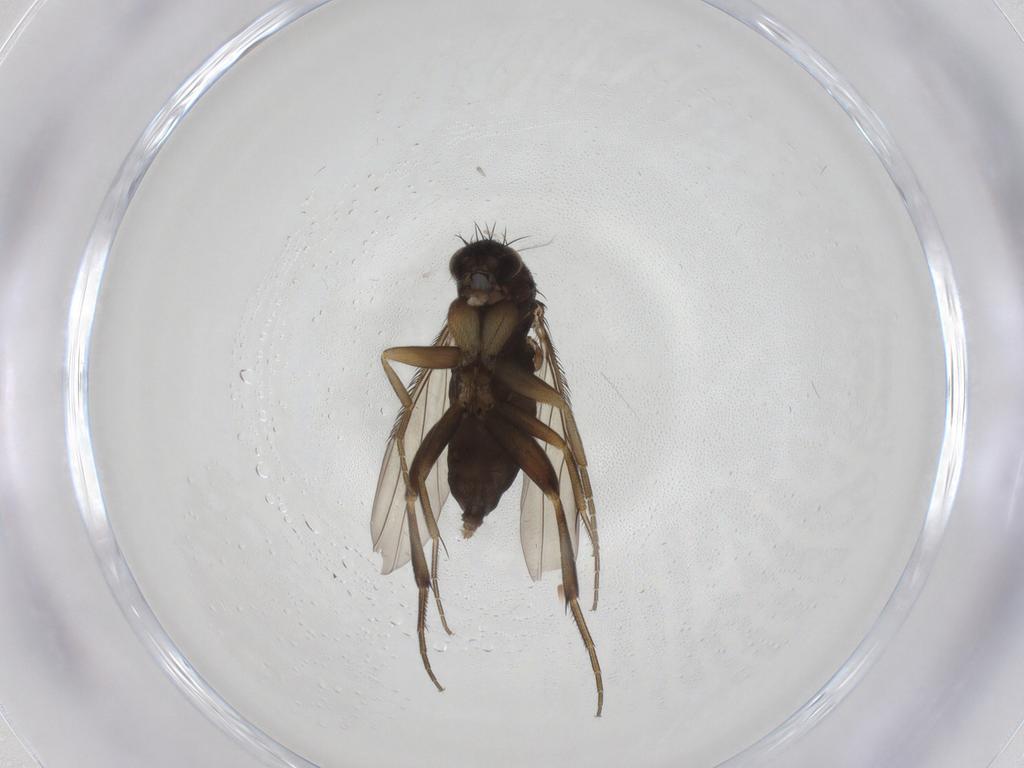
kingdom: Animalia
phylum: Arthropoda
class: Insecta
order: Diptera
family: Phoridae
